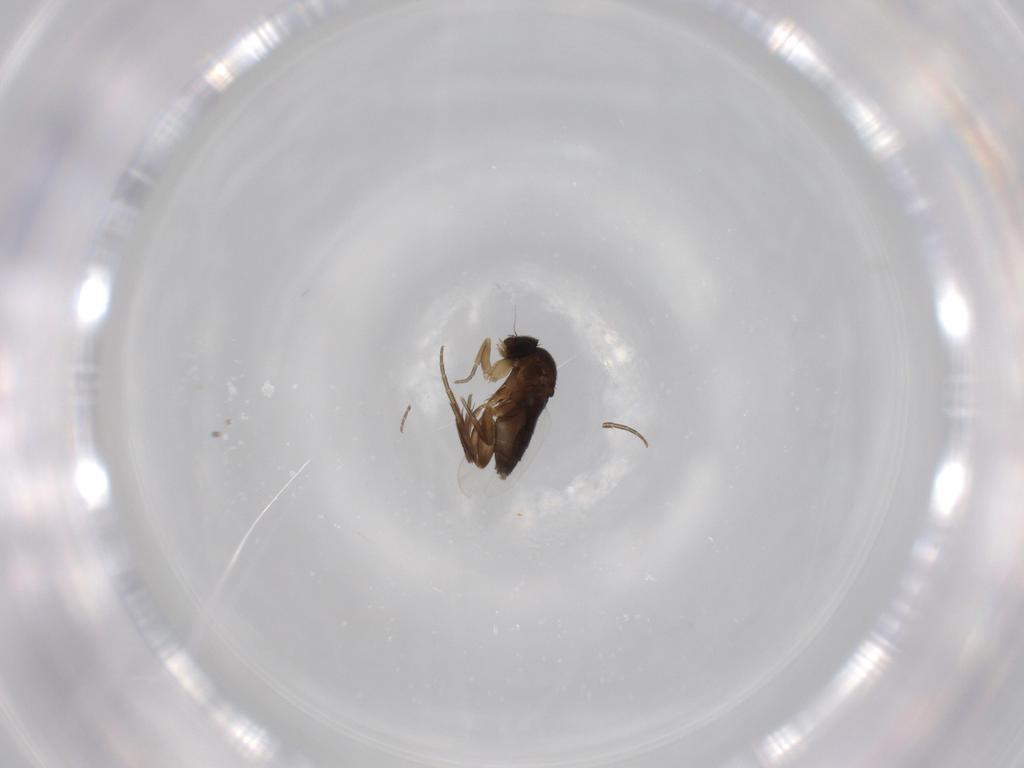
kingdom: Animalia
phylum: Arthropoda
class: Insecta
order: Diptera
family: Phoridae
